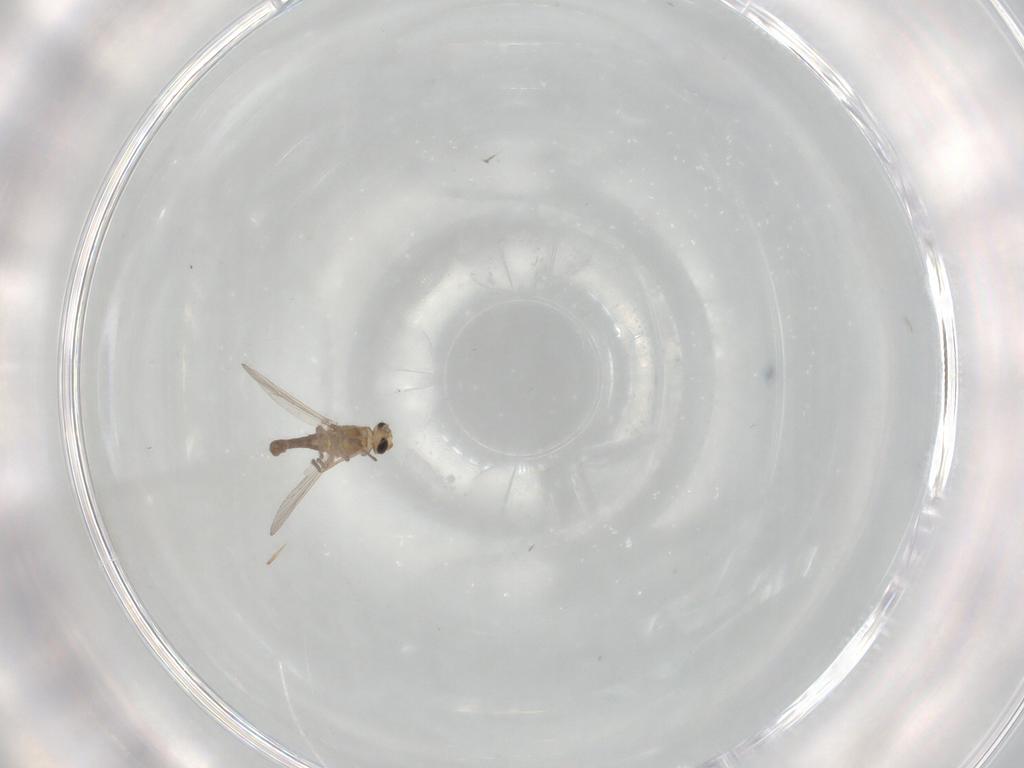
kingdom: Animalia
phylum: Arthropoda
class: Insecta
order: Diptera
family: Chironomidae
